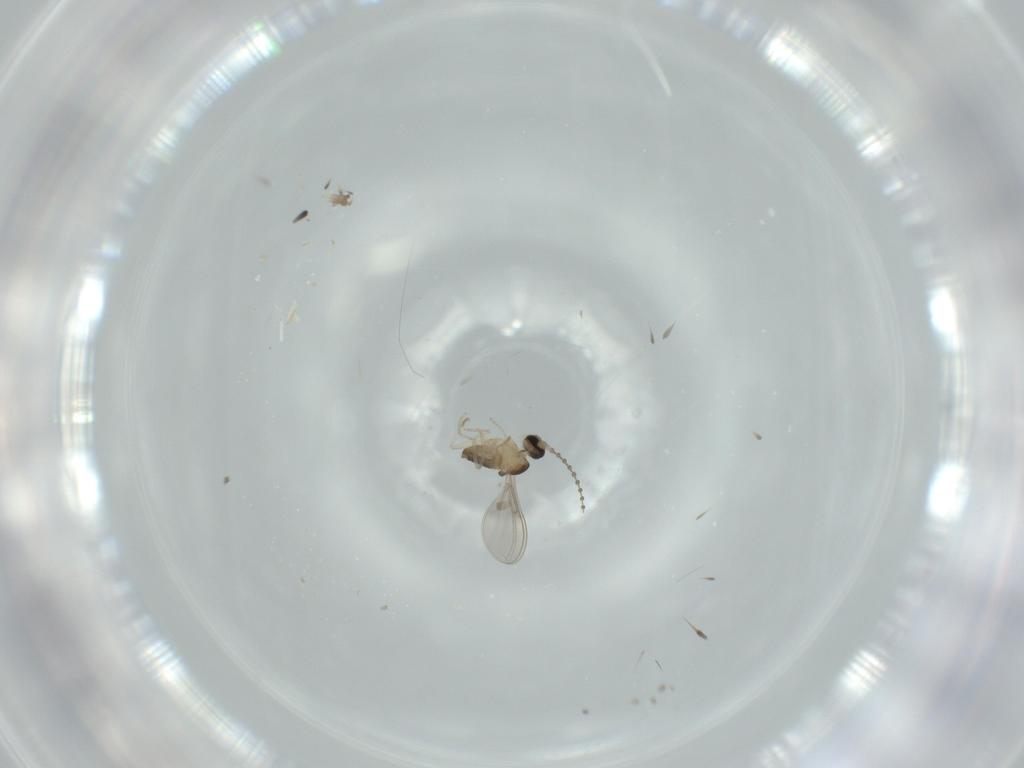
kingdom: Animalia
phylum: Arthropoda
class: Insecta
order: Diptera
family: Cecidomyiidae
